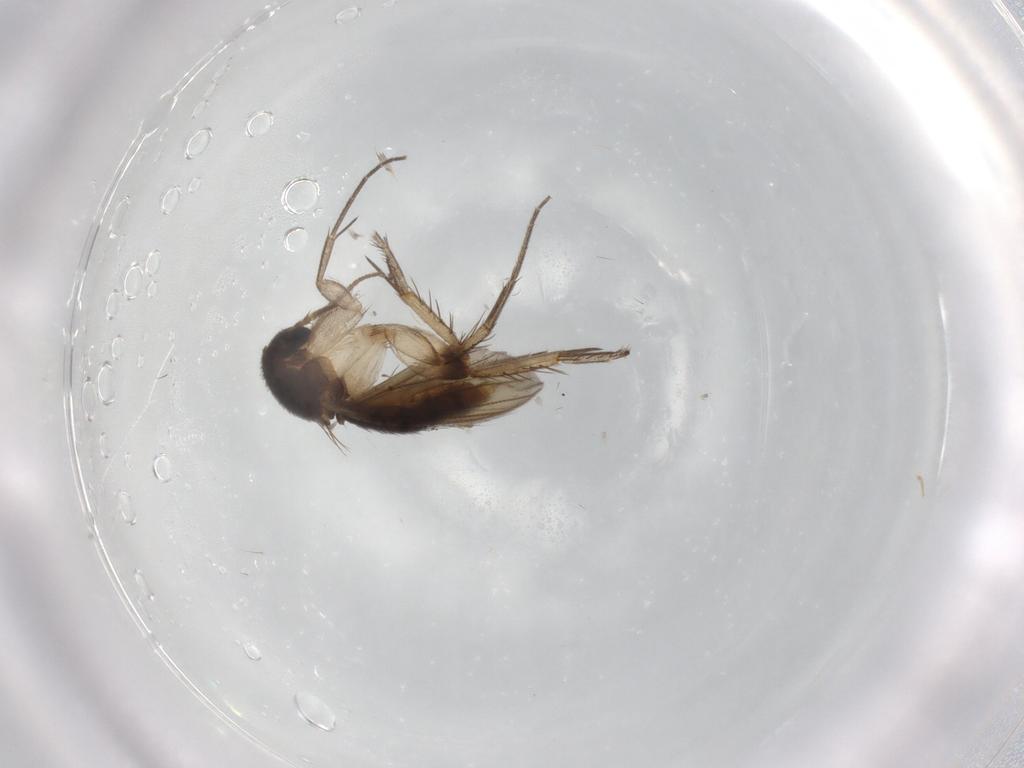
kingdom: Animalia
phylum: Arthropoda
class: Insecta
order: Diptera
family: Mycetophilidae
